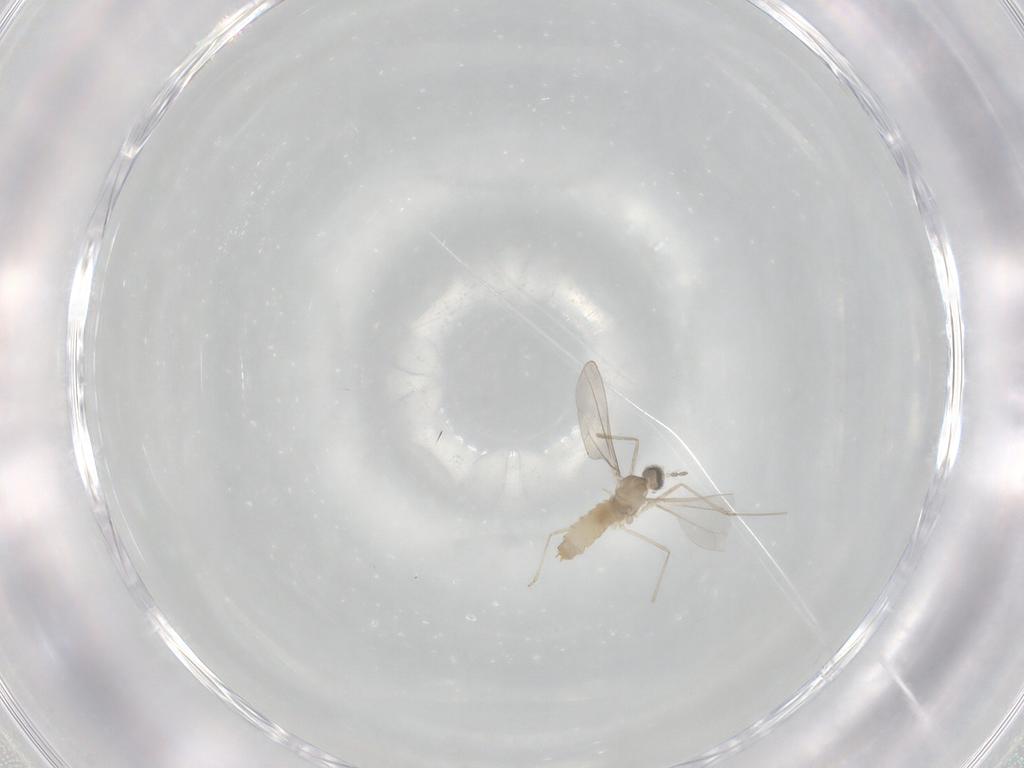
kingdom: Animalia
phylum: Arthropoda
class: Insecta
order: Diptera
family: Cecidomyiidae
